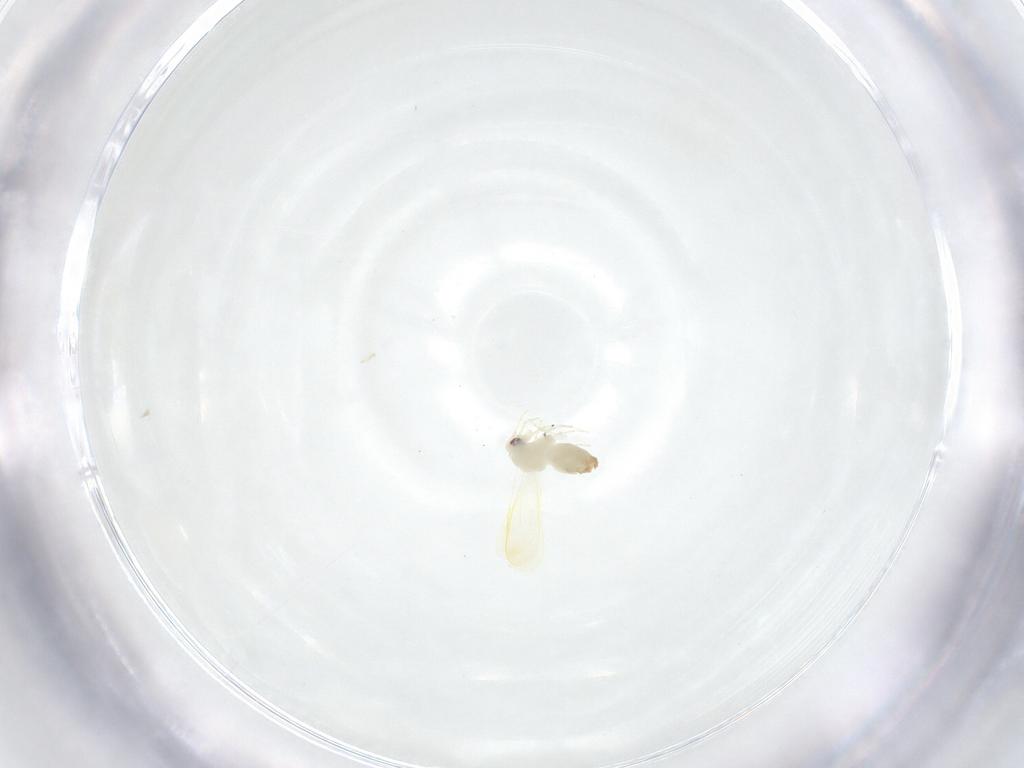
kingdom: Animalia
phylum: Arthropoda
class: Insecta
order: Hemiptera
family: Aleyrodidae
